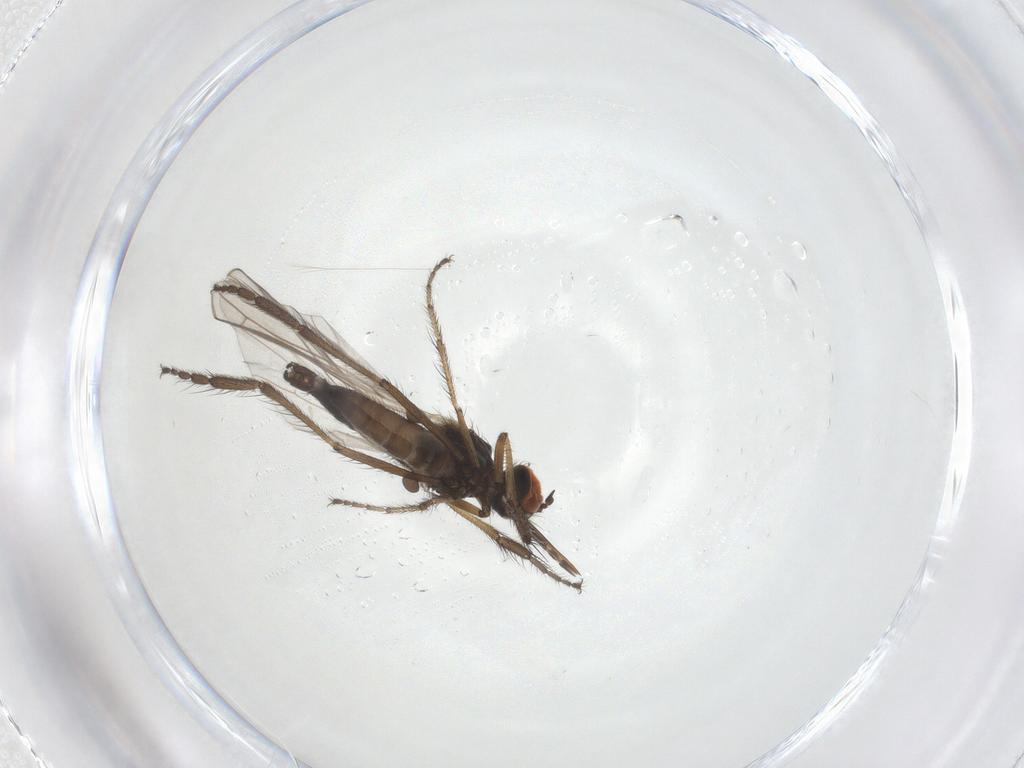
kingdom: Animalia
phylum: Arthropoda
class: Insecta
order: Diptera
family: Empididae
